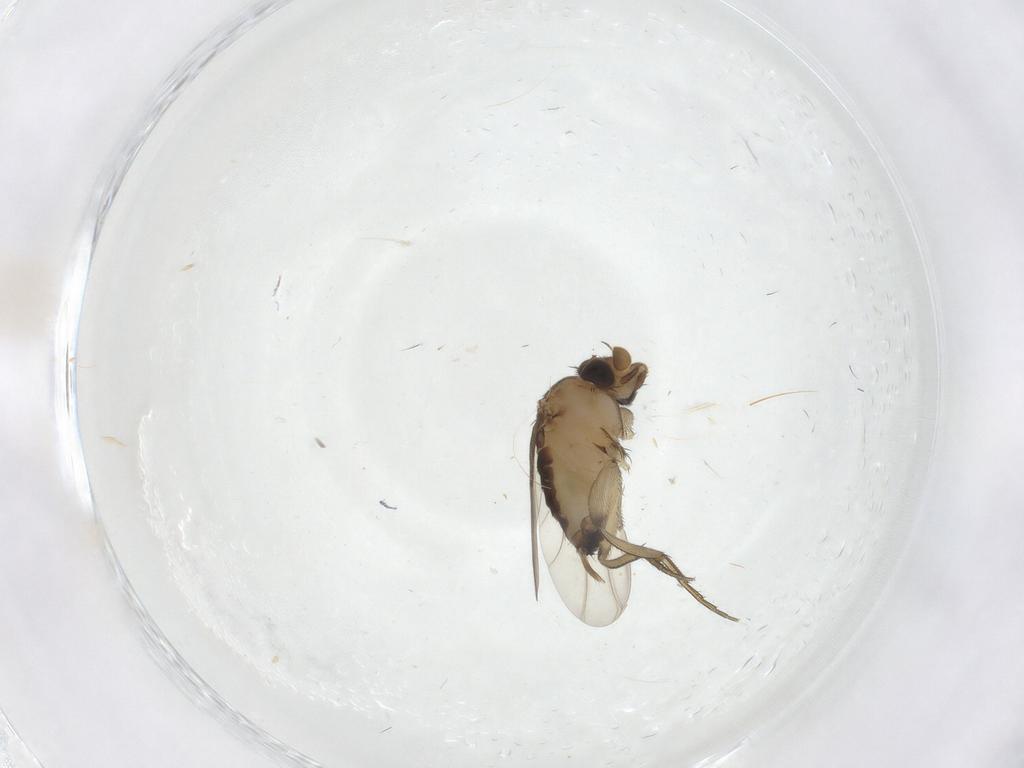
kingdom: Animalia
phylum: Arthropoda
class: Insecta
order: Diptera
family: Phoridae
